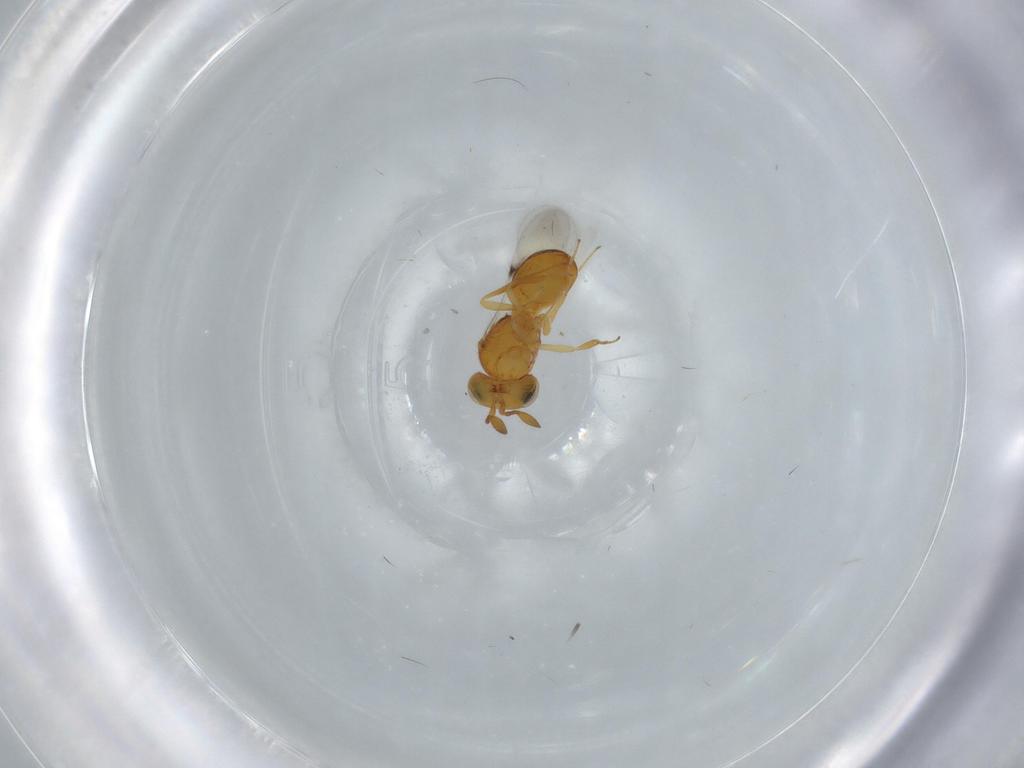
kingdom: Animalia
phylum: Arthropoda
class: Insecta
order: Hymenoptera
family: Scelionidae
